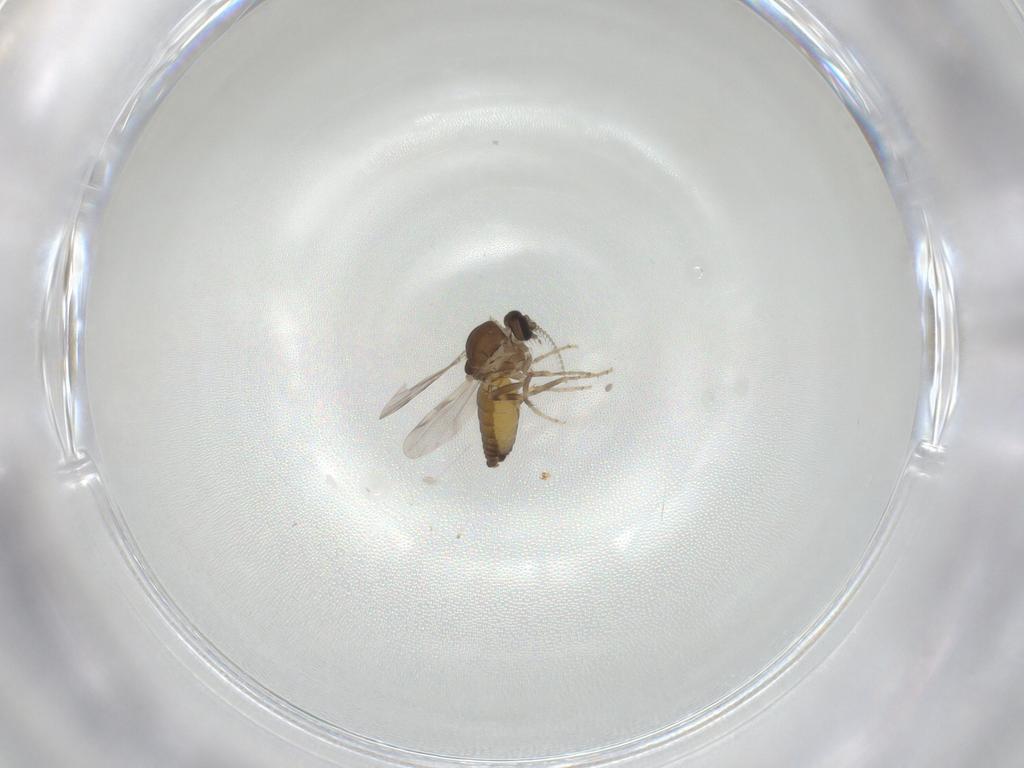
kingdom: Animalia
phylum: Arthropoda
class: Insecta
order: Diptera
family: Ceratopogonidae
